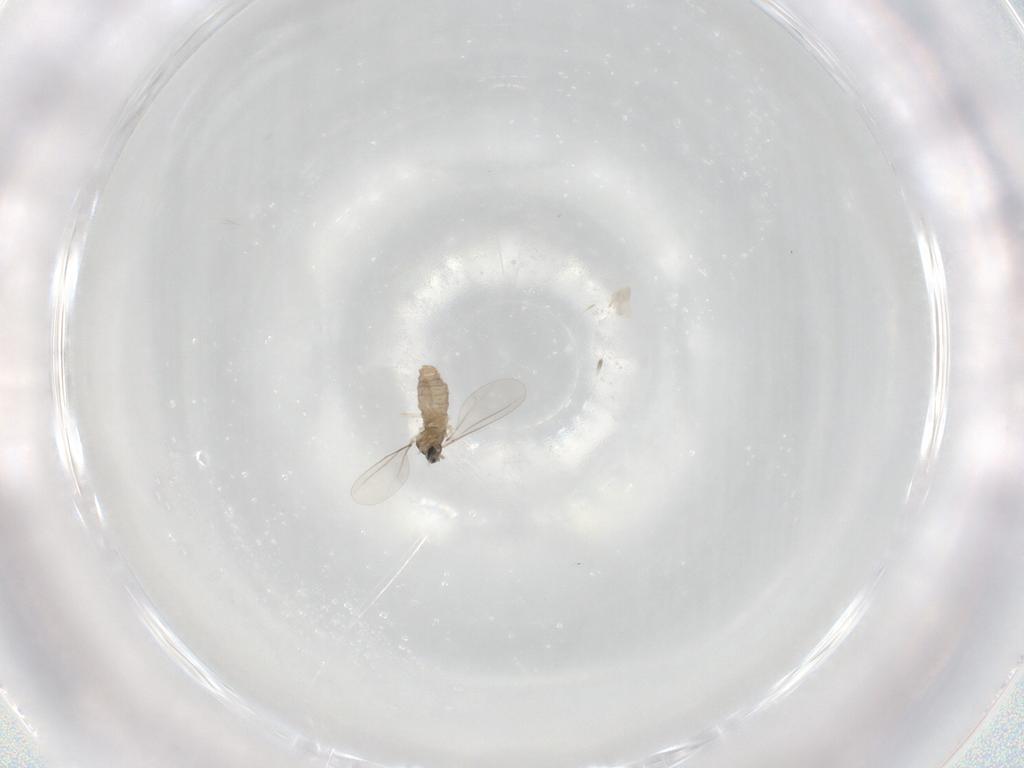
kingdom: Animalia
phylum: Arthropoda
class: Insecta
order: Diptera
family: Cecidomyiidae
